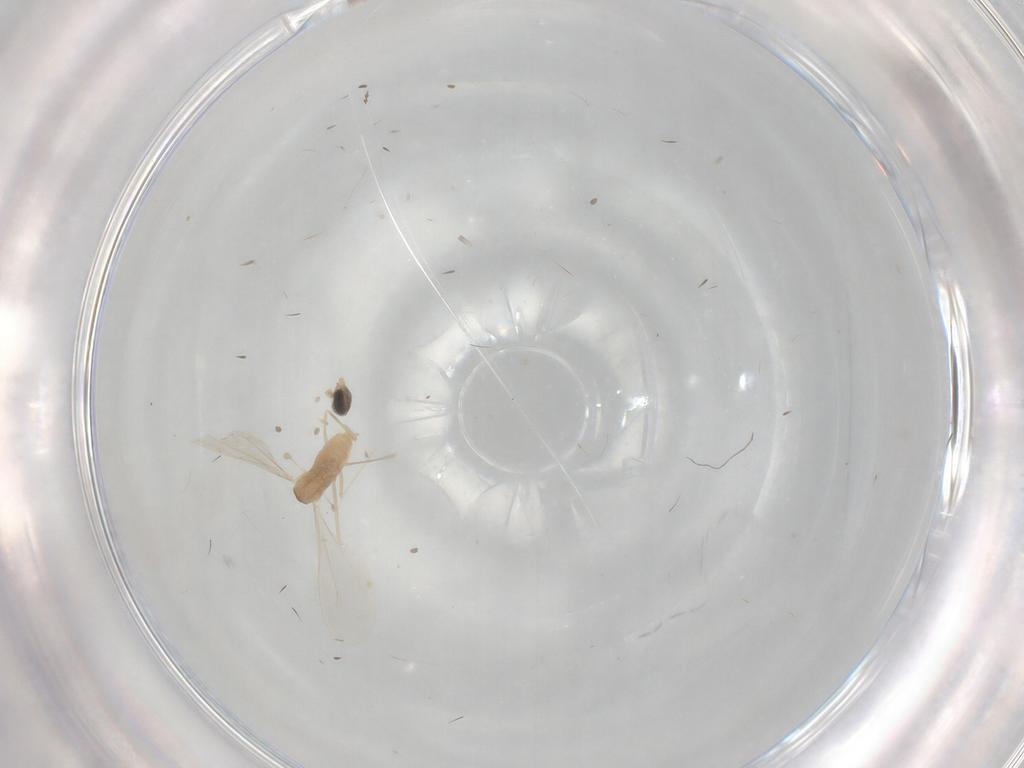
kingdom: Animalia
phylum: Arthropoda
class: Insecta
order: Diptera
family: Cecidomyiidae
